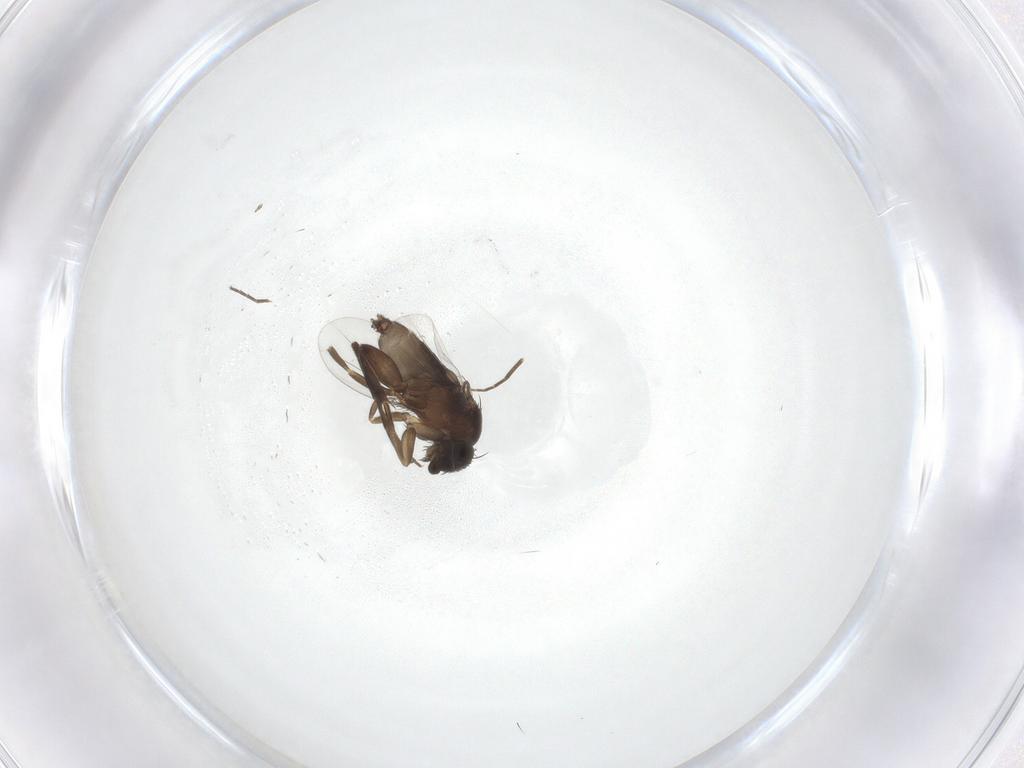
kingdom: Animalia
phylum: Arthropoda
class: Insecta
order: Diptera
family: Phoridae
